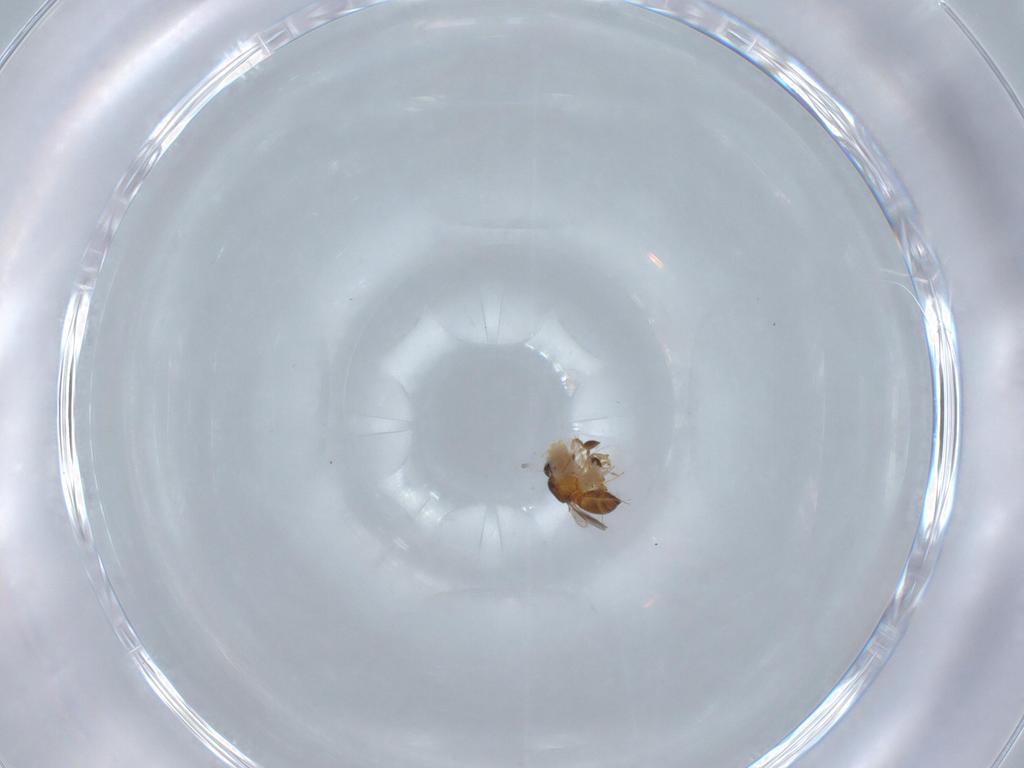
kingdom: Animalia
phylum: Arthropoda
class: Insecta
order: Hymenoptera
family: Scelionidae
